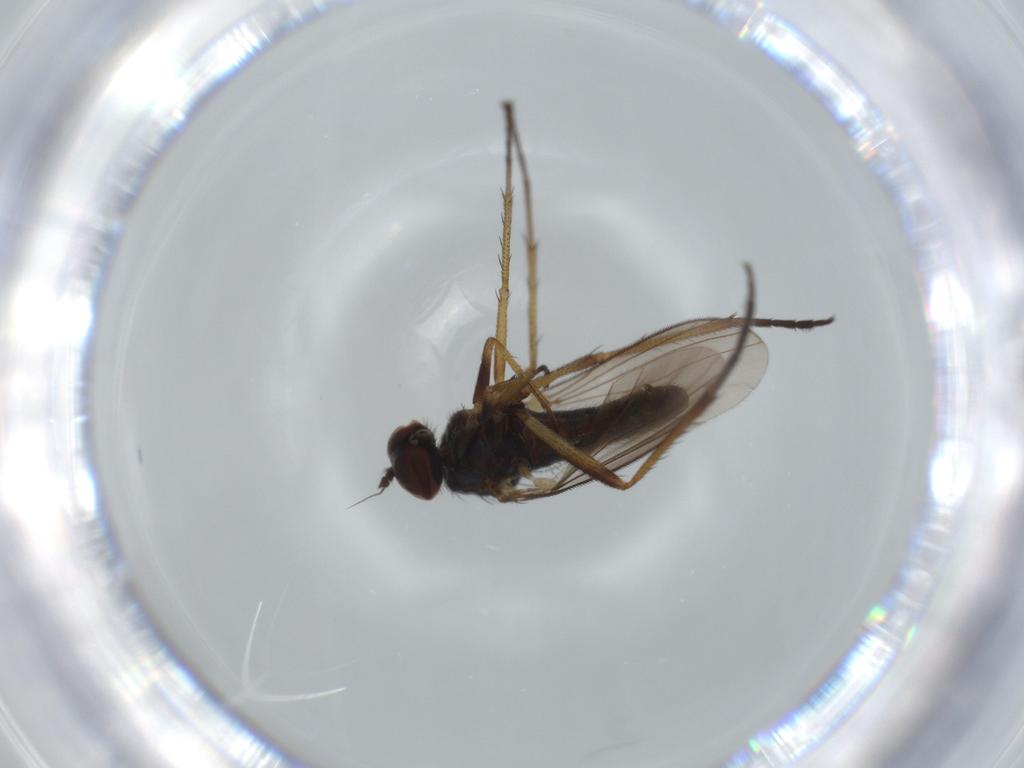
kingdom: Animalia
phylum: Arthropoda
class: Insecta
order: Diptera
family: Dolichopodidae
